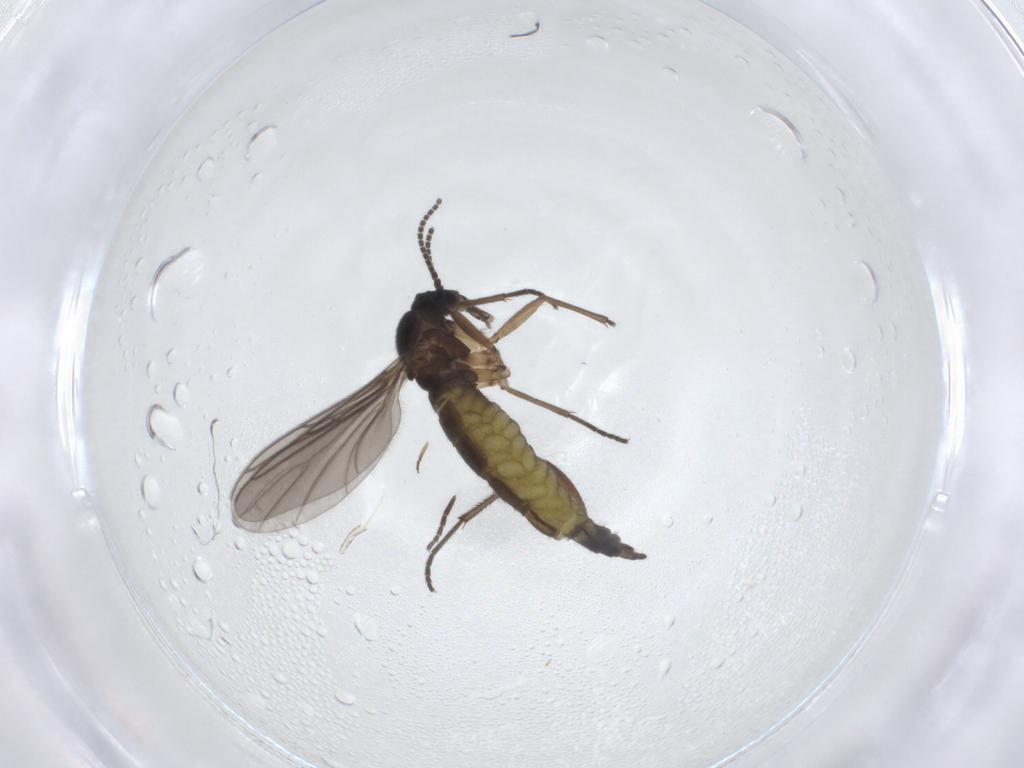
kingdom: Animalia
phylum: Arthropoda
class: Insecta
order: Diptera
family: Sciaridae
